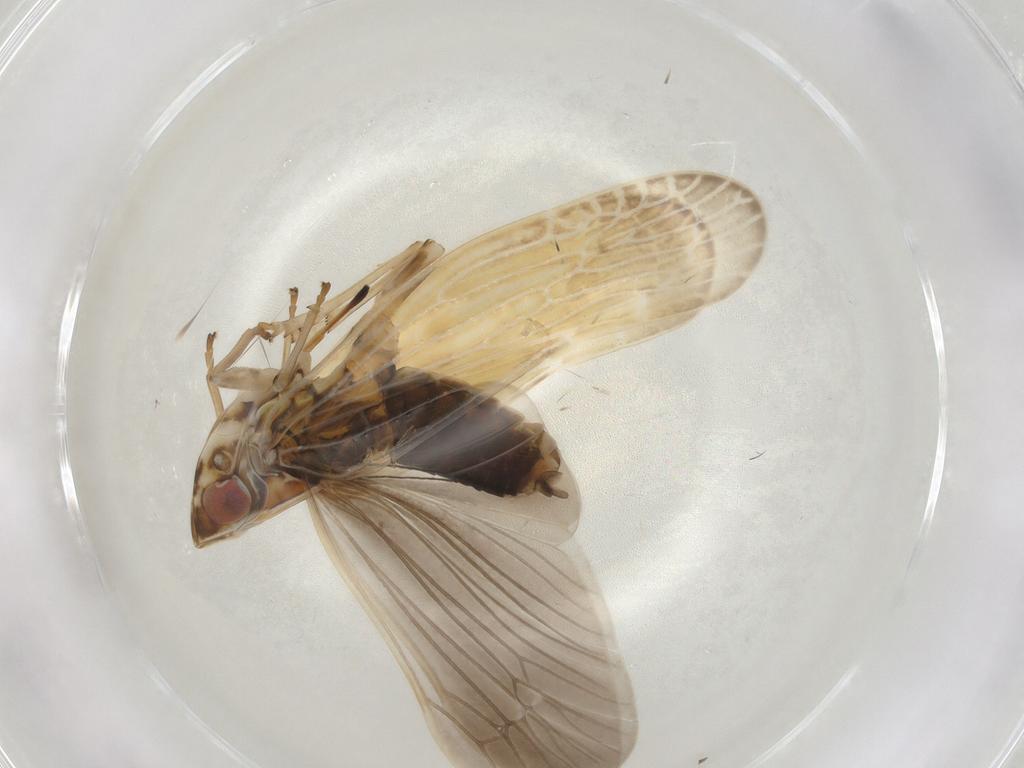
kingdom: Animalia
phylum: Arthropoda
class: Insecta
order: Hemiptera
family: Achilidae
